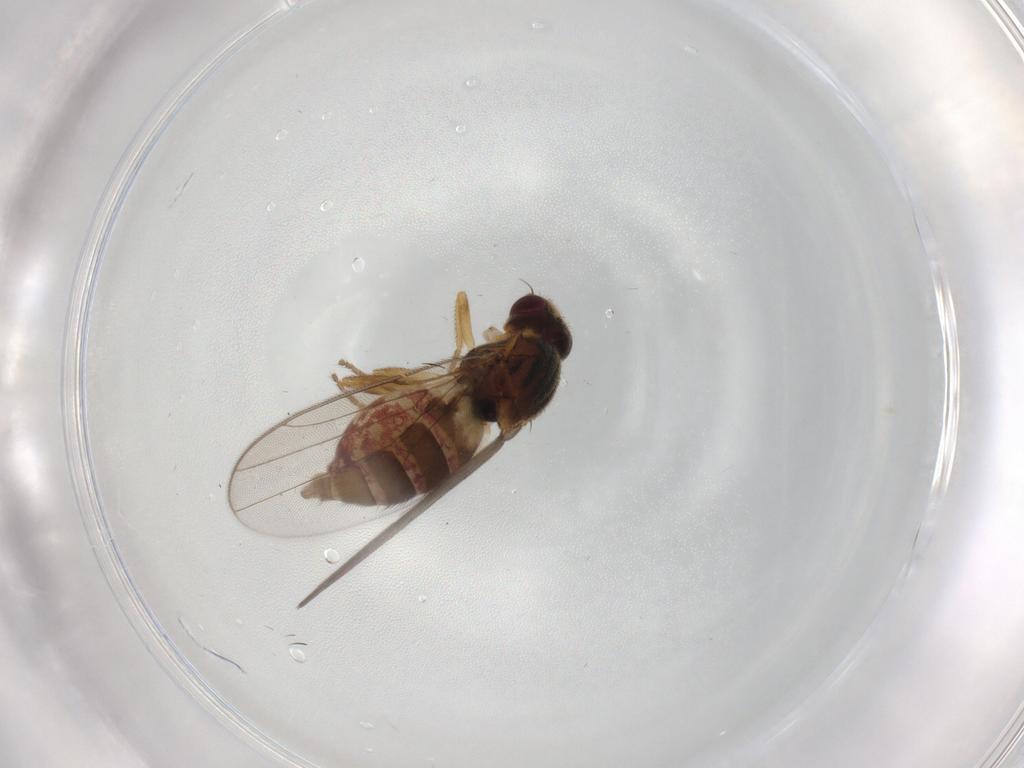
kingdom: Animalia
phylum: Arthropoda
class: Insecta
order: Diptera
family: Chloropidae
